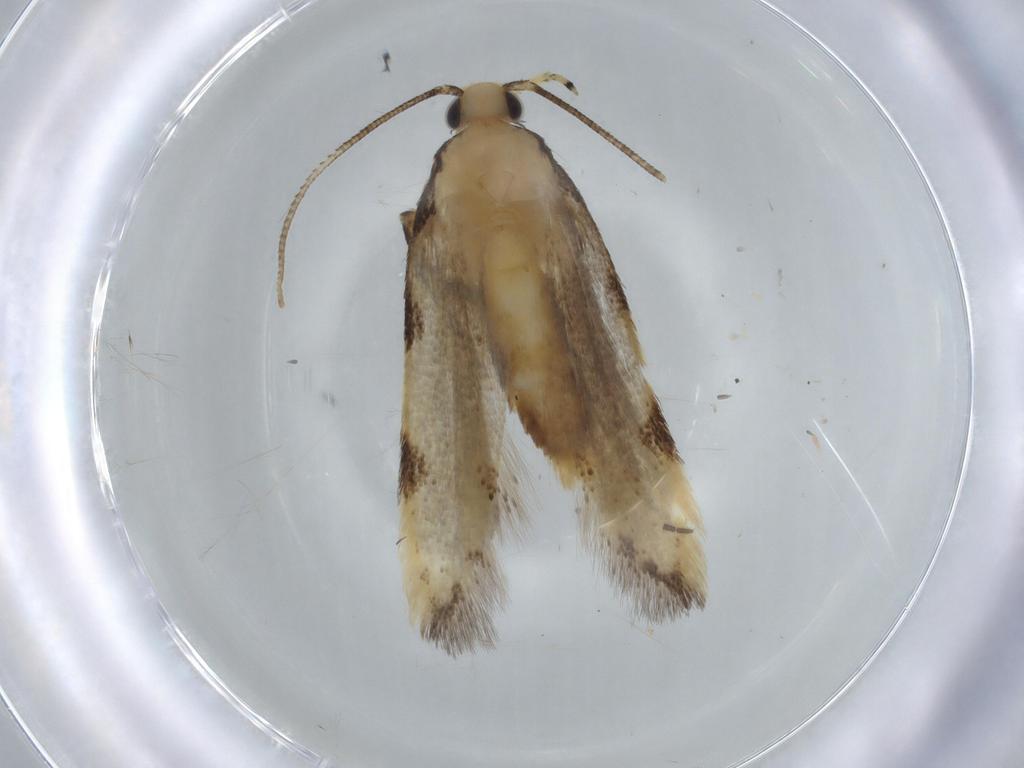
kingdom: Animalia
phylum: Arthropoda
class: Insecta
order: Lepidoptera
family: Autostichidae
